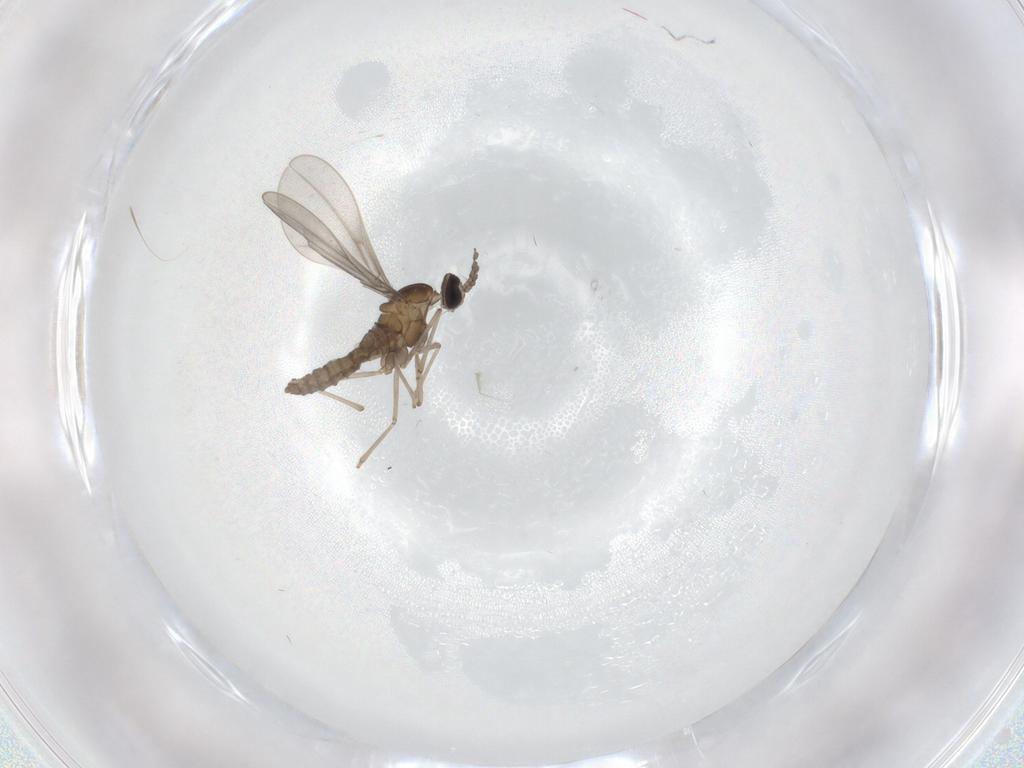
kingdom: Animalia
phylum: Arthropoda
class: Insecta
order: Diptera
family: Cecidomyiidae
